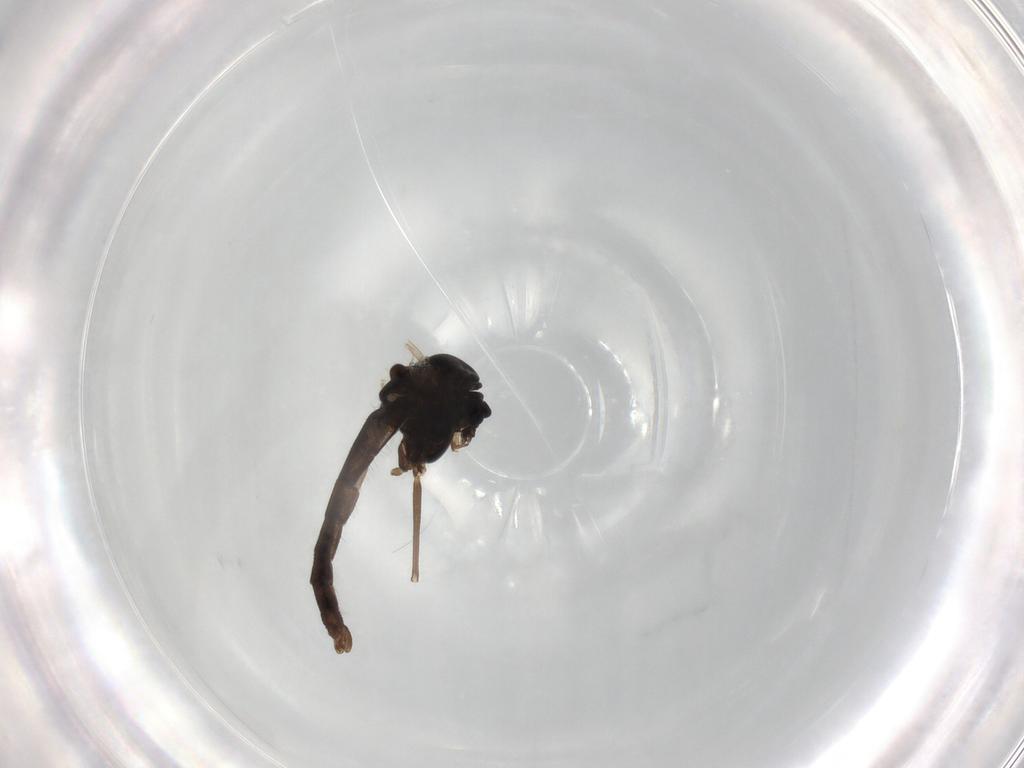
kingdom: Animalia
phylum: Arthropoda
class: Insecta
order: Diptera
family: Chironomidae
